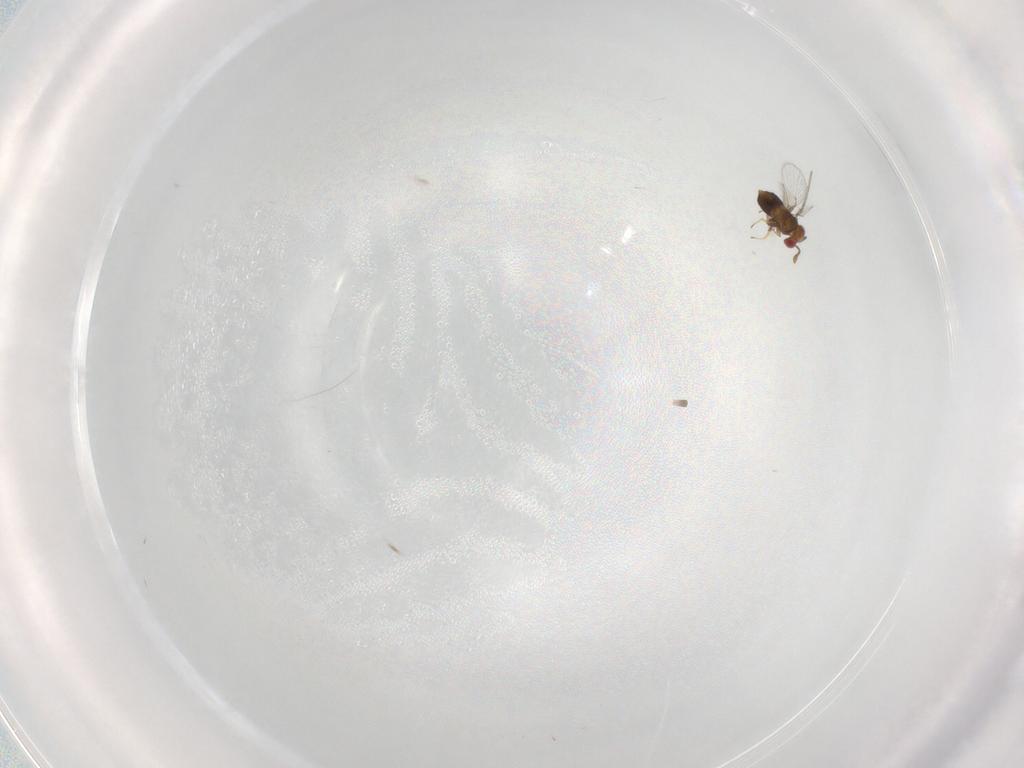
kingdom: Animalia
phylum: Arthropoda
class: Insecta
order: Hymenoptera
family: Trichogrammatidae
